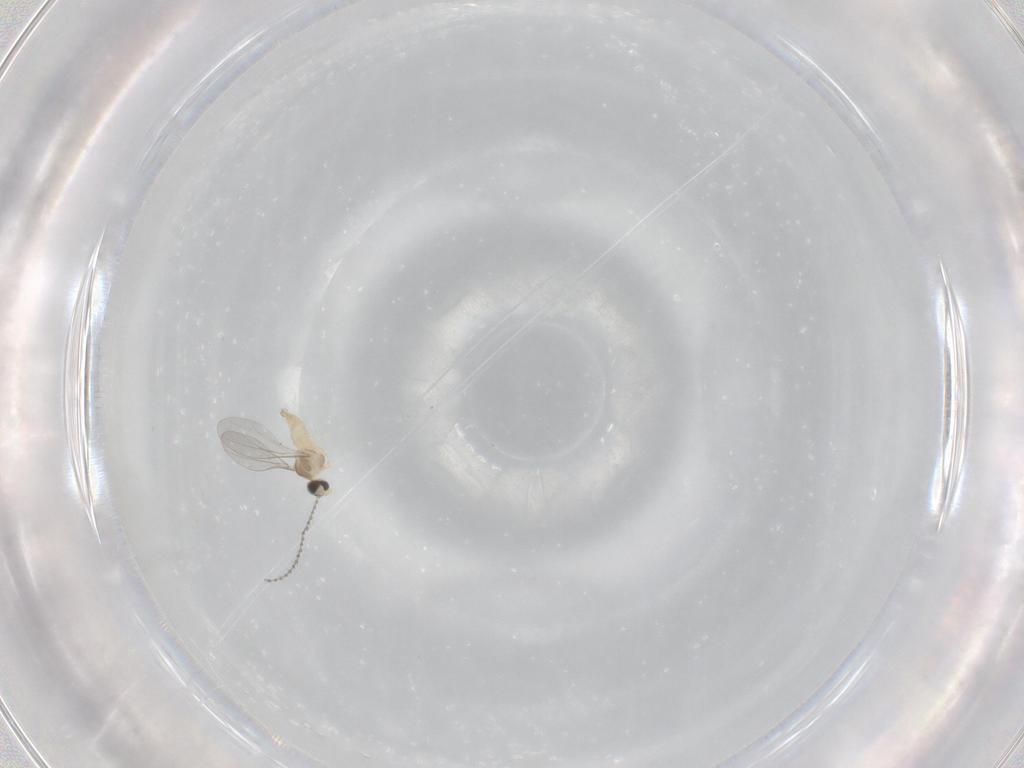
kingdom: Animalia
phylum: Arthropoda
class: Insecta
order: Diptera
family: Cecidomyiidae
